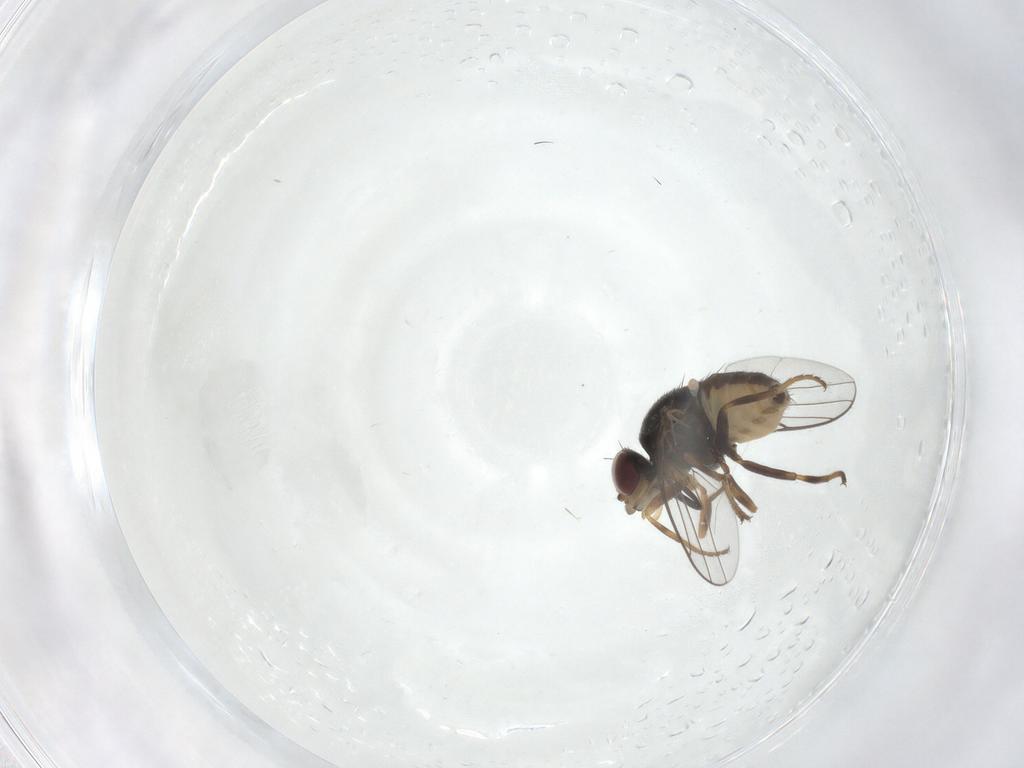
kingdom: Animalia
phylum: Arthropoda
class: Insecta
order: Diptera
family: Chloropidae
